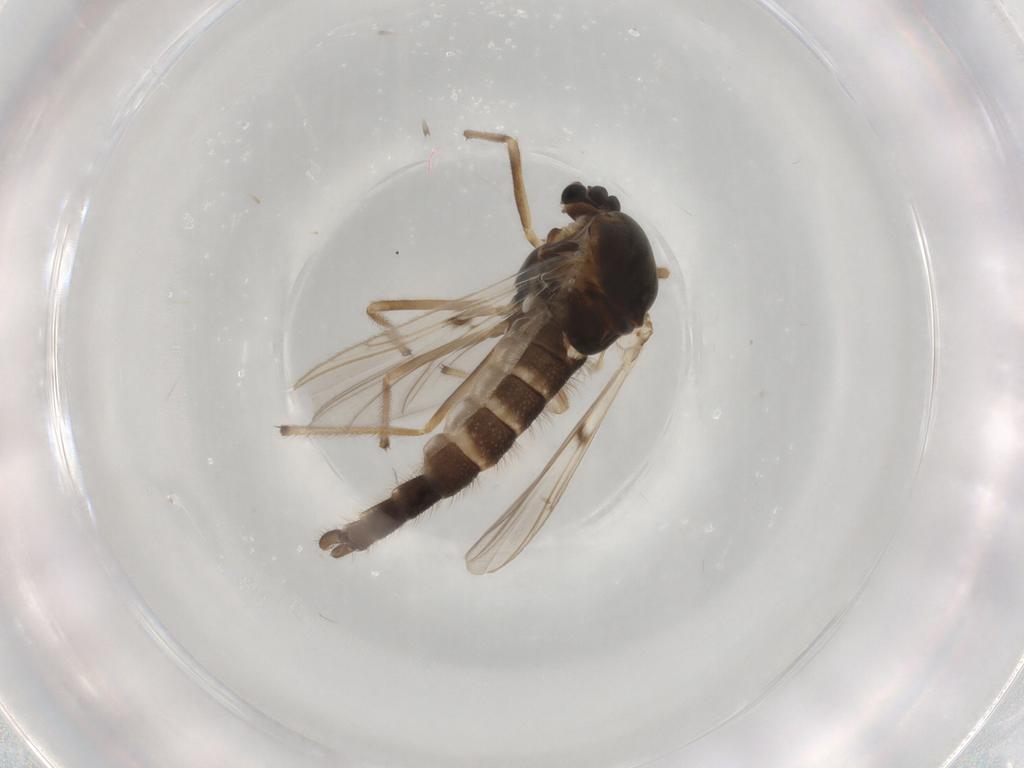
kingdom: Animalia
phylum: Arthropoda
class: Insecta
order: Diptera
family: Chironomidae
